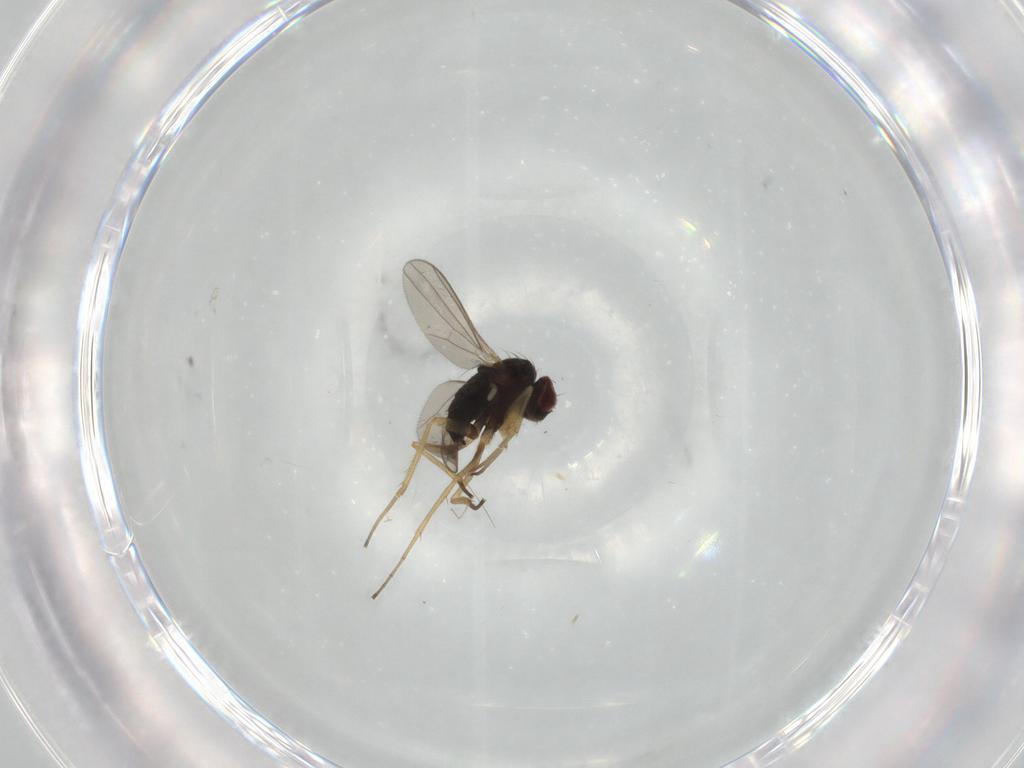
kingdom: Animalia
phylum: Arthropoda
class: Insecta
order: Diptera
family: Dolichopodidae
